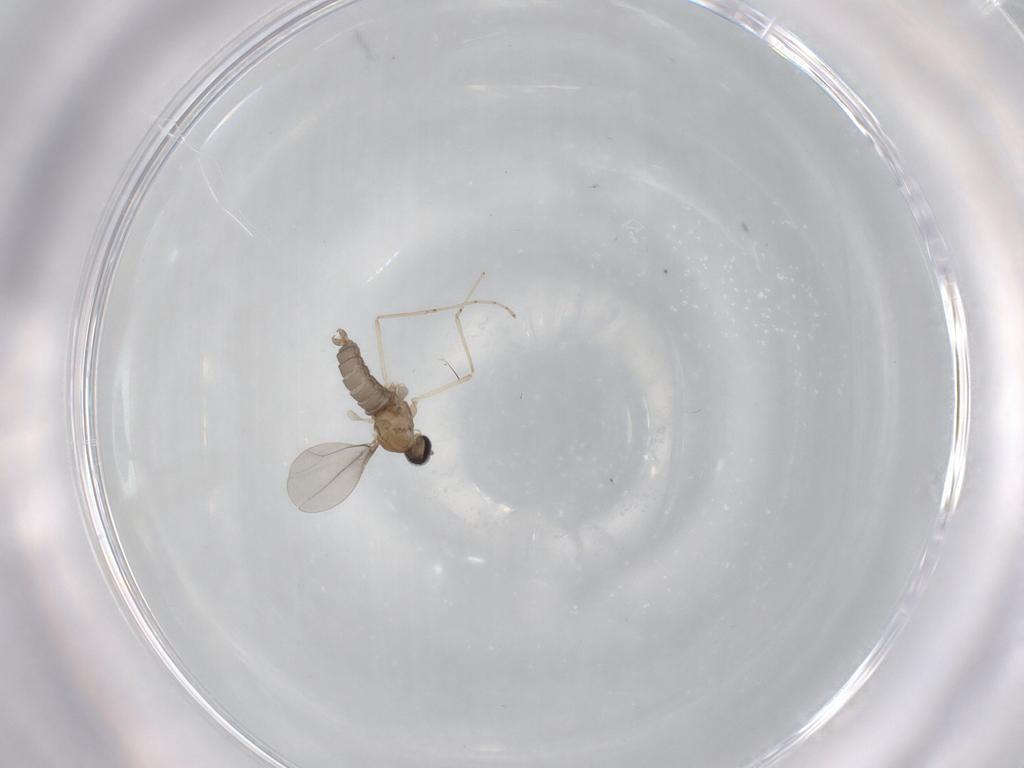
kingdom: Animalia
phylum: Arthropoda
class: Insecta
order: Diptera
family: Cecidomyiidae
